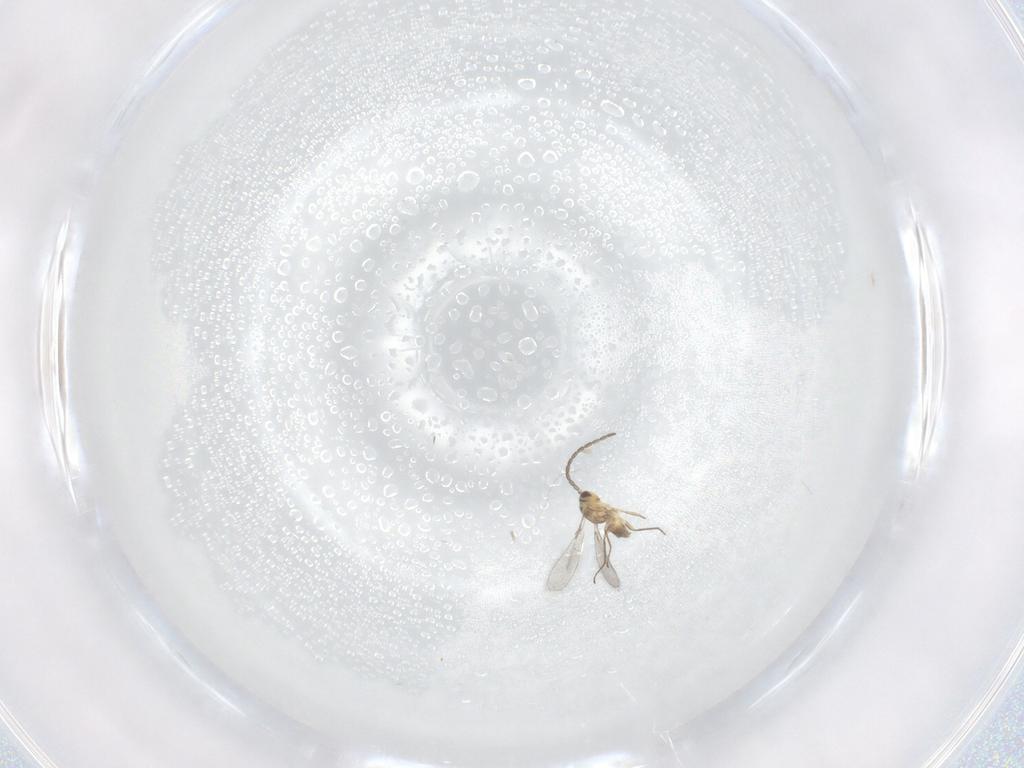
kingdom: Animalia
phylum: Arthropoda
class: Insecta
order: Hymenoptera
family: Mymaridae
